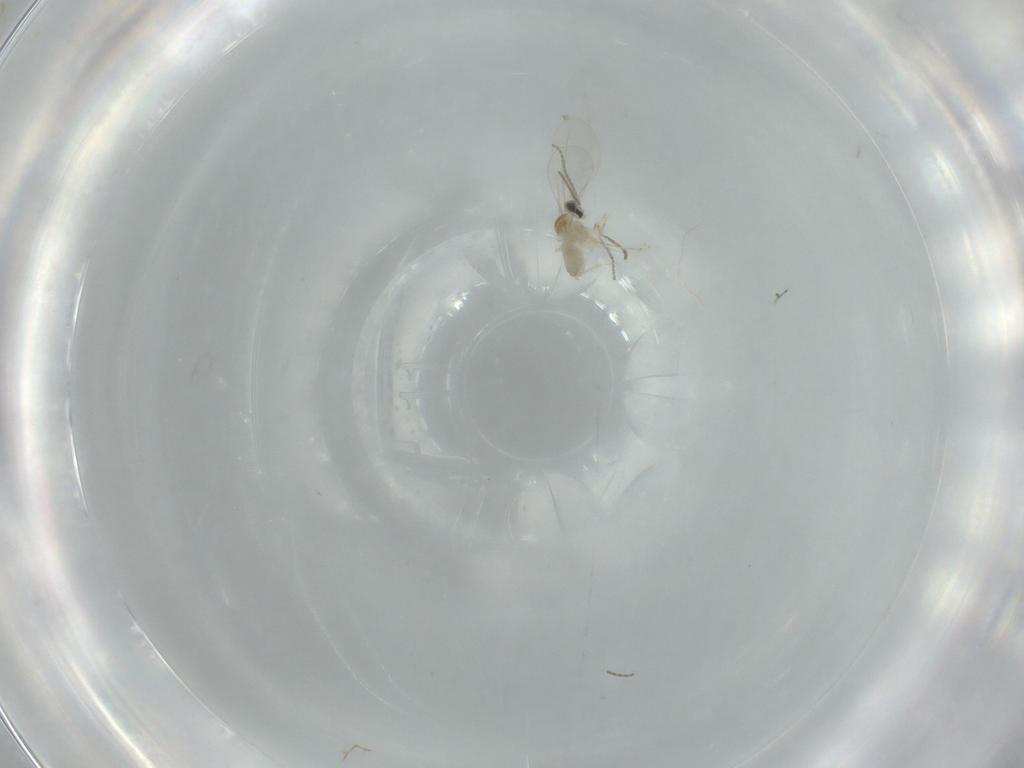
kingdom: Animalia
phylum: Arthropoda
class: Insecta
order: Diptera
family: Cecidomyiidae
